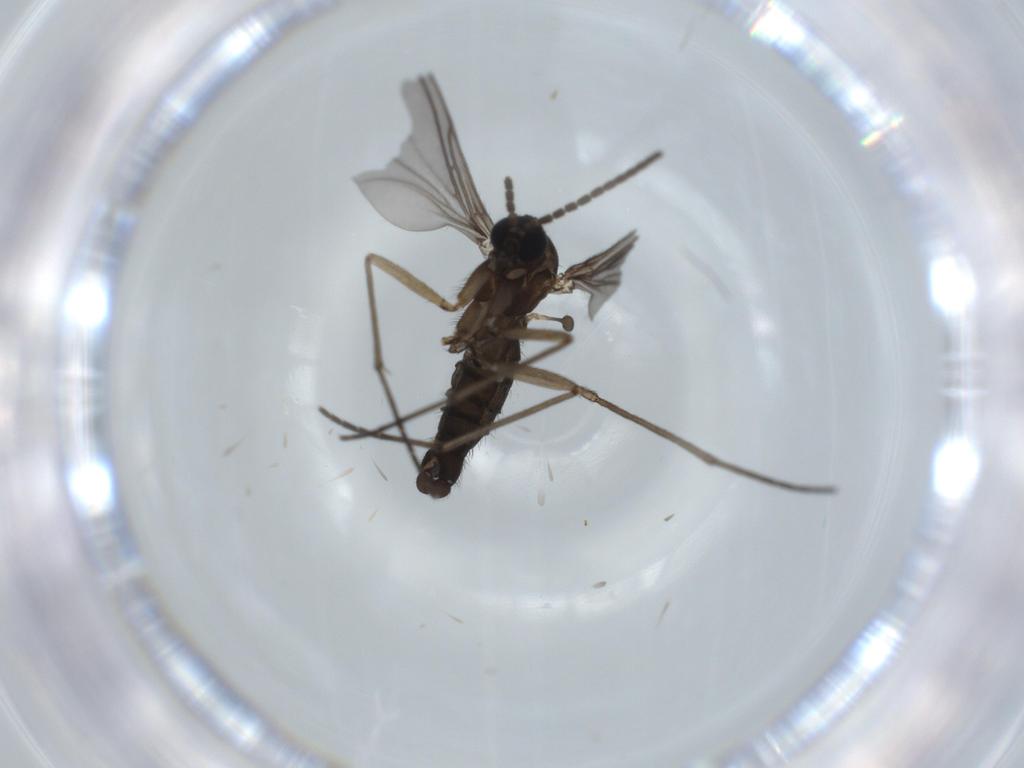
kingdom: Animalia
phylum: Arthropoda
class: Insecta
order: Diptera
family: Sciaridae
